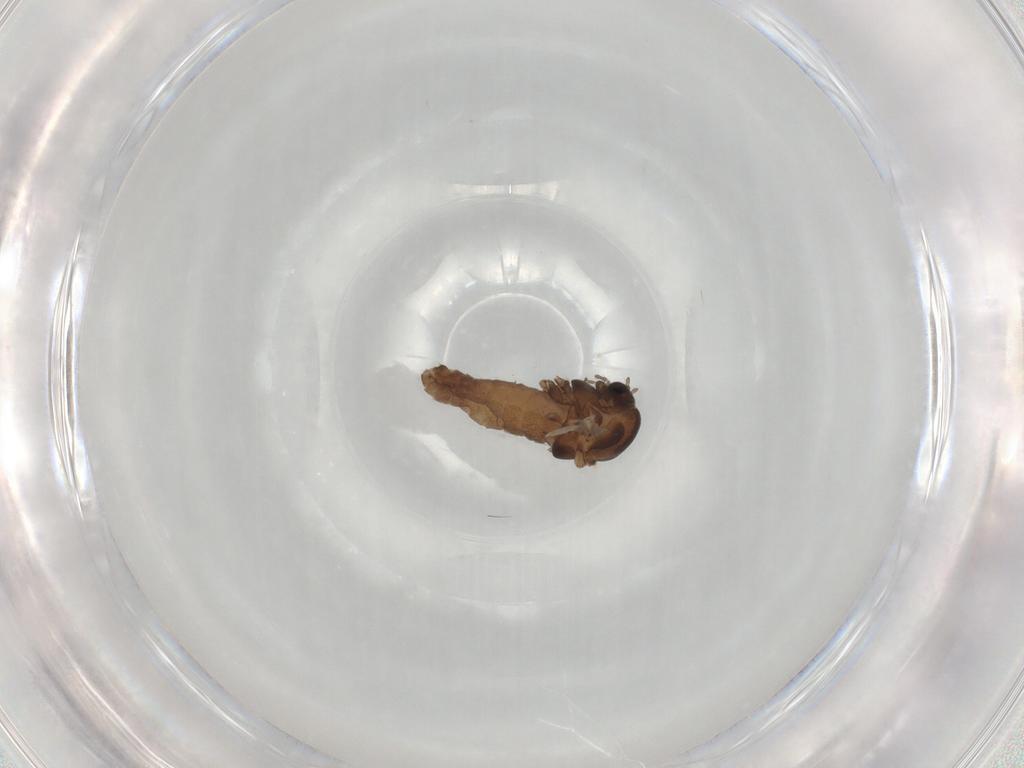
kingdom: Animalia
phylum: Arthropoda
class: Insecta
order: Diptera
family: Chironomidae
